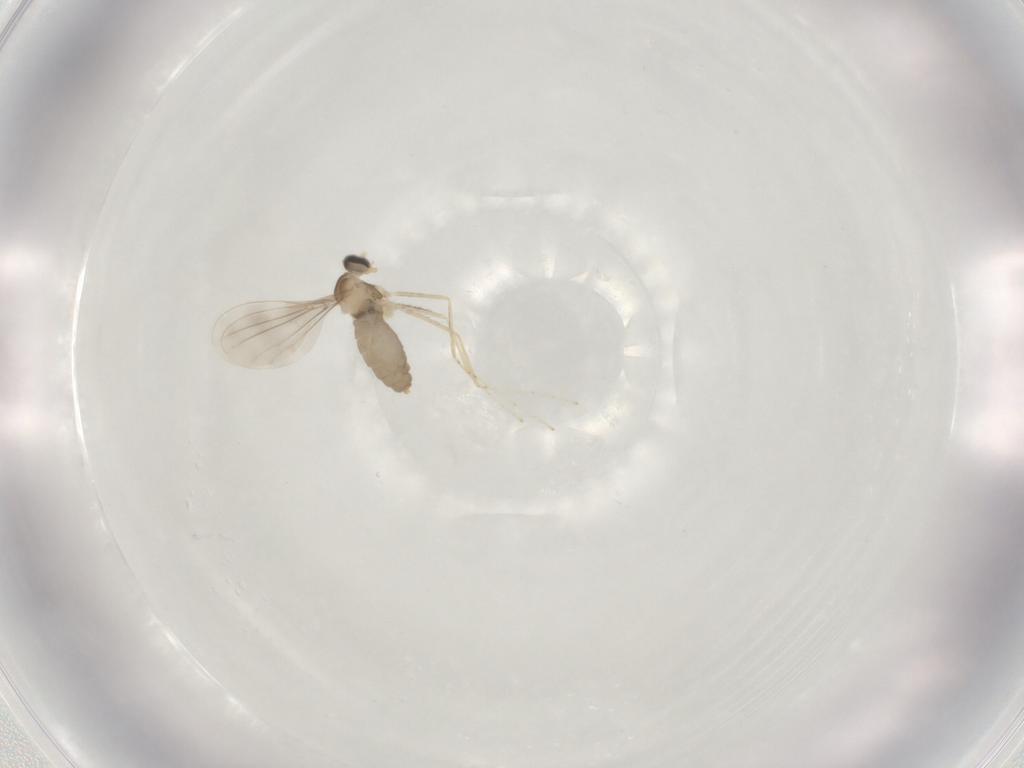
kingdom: Animalia
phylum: Arthropoda
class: Insecta
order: Diptera
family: Cecidomyiidae
